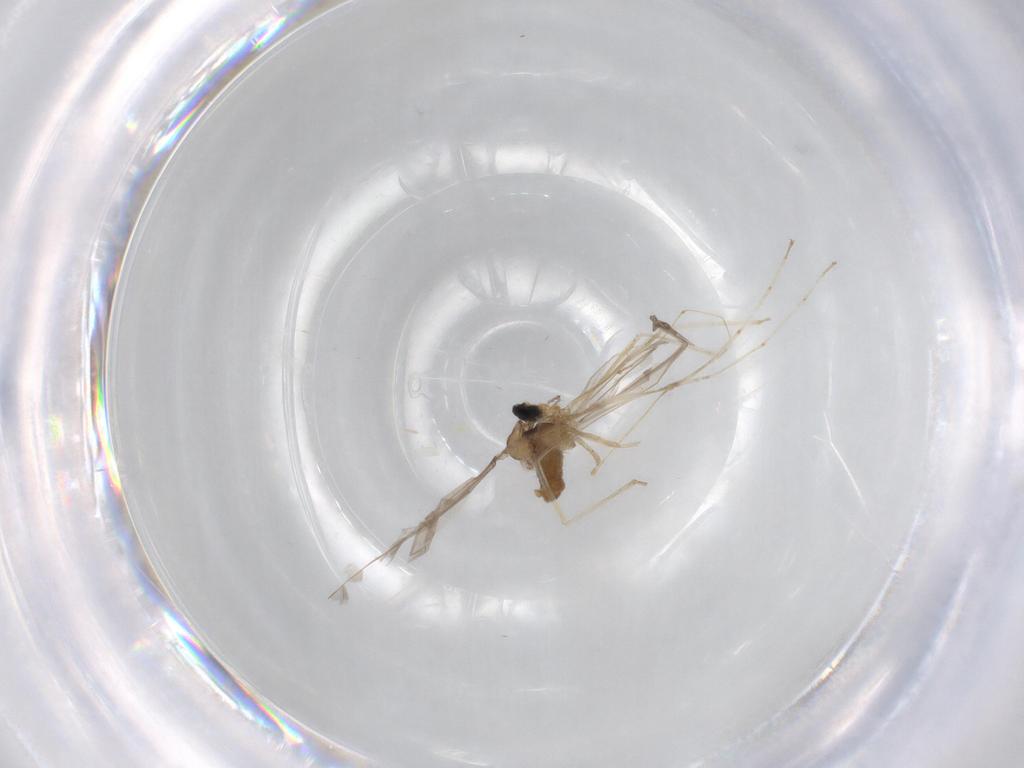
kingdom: Animalia
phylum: Arthropoda
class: Insecta
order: Diptera
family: Cecidomyiidae
